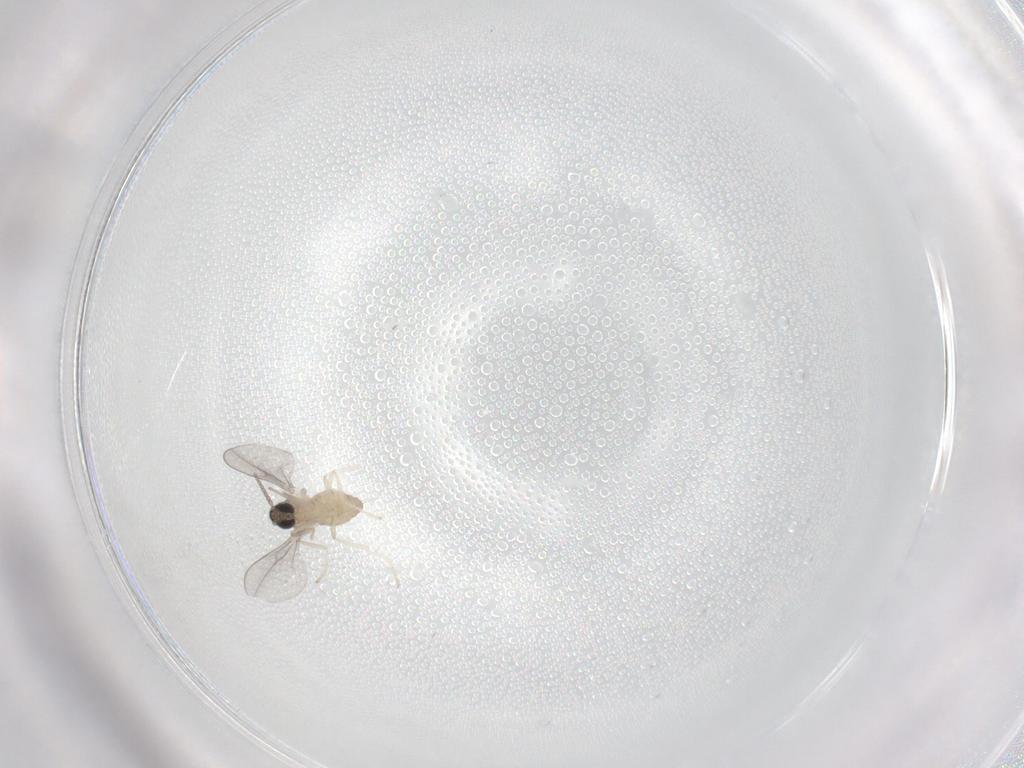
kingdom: Animalia
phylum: Arthropoda
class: Insecta
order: Diptera
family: Cecidomyiidae
